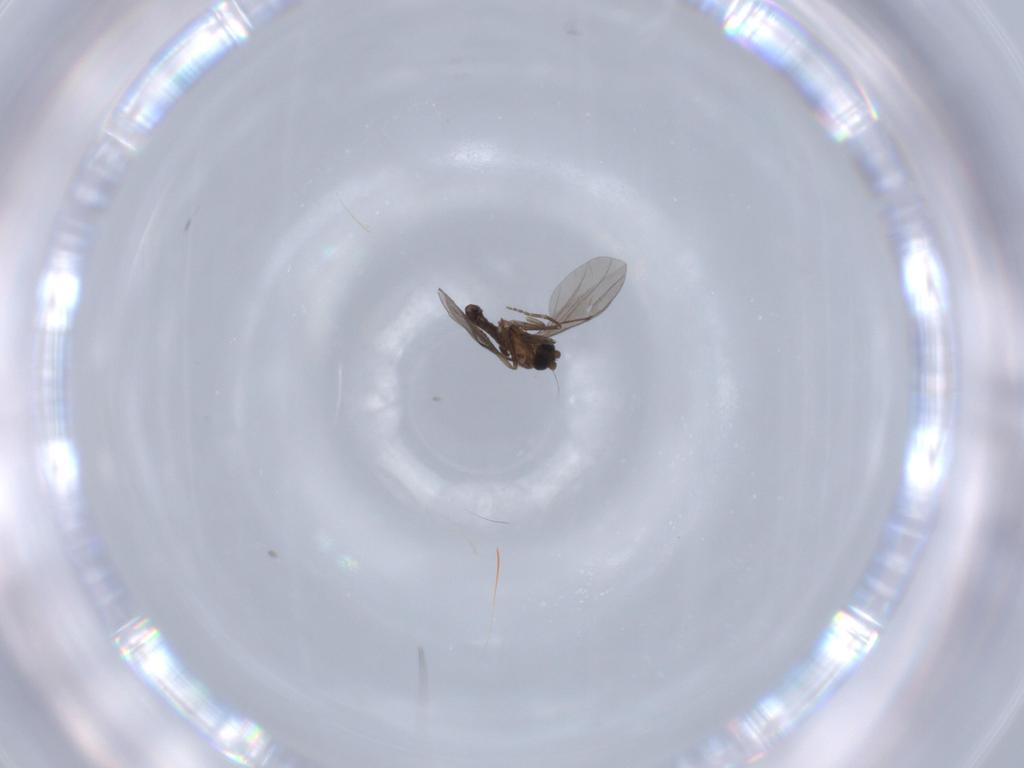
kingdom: Animalia
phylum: Arthropoda
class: Insecta
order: Diptera
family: Phoridae
